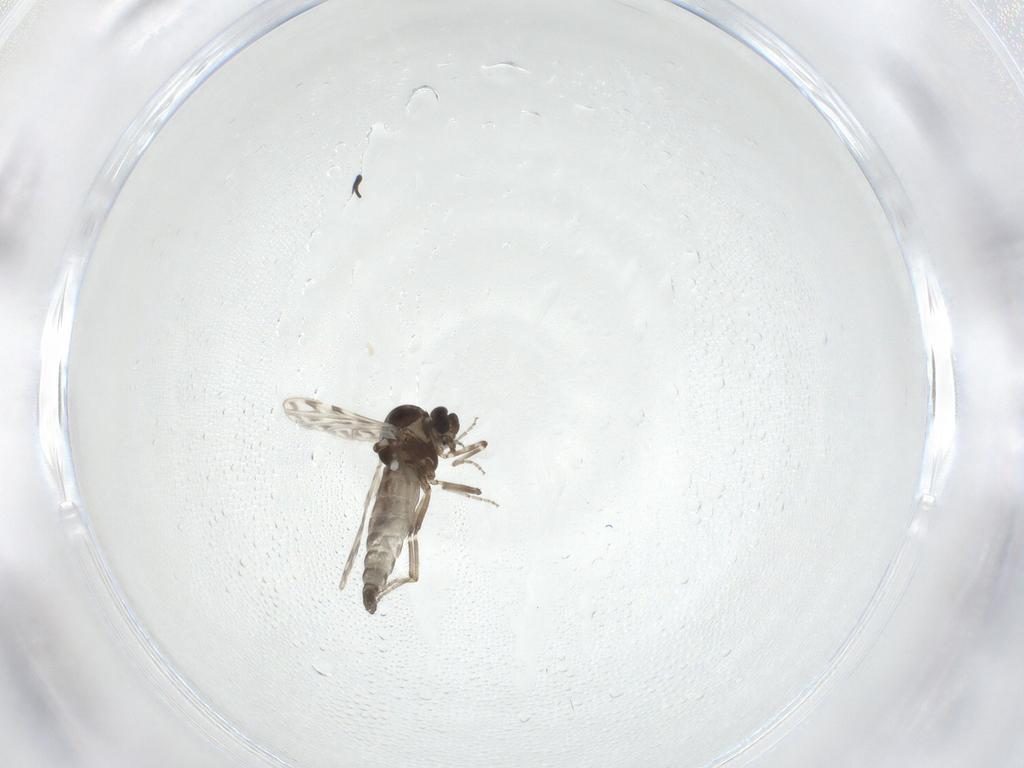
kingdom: Animalia
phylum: Arthropoda
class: Insecta
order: Diptera
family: Ceratopogonidae
